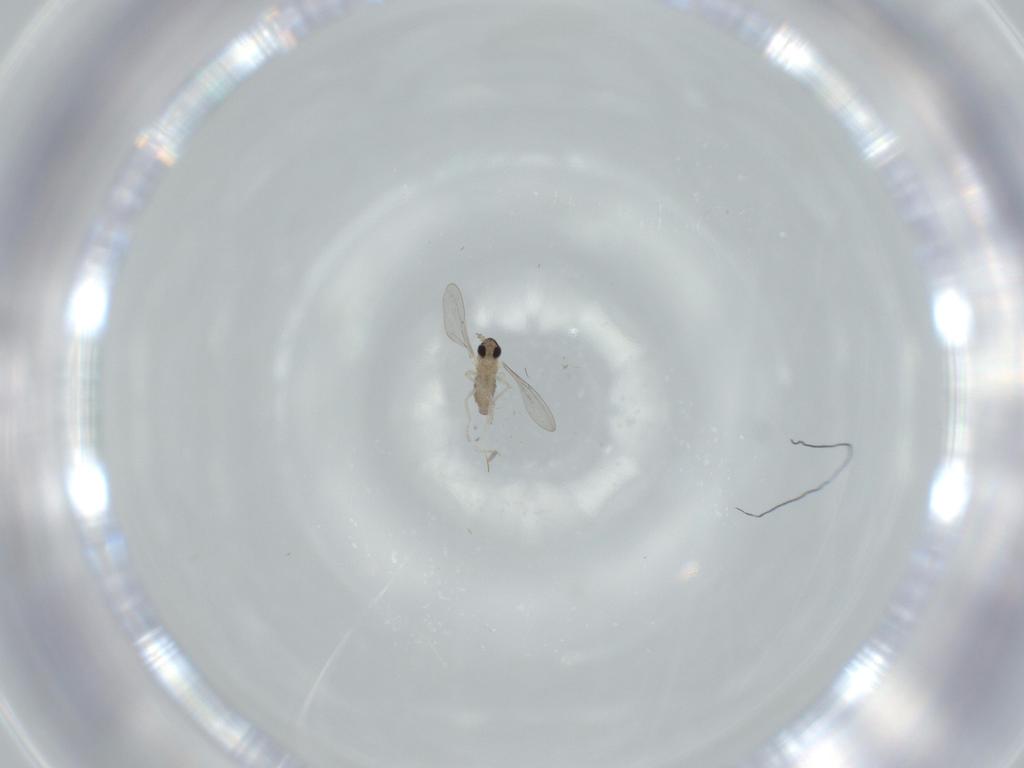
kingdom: Animalia
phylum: Arthropoda
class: Insecta
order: Diptera
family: Cecidomyiidae
